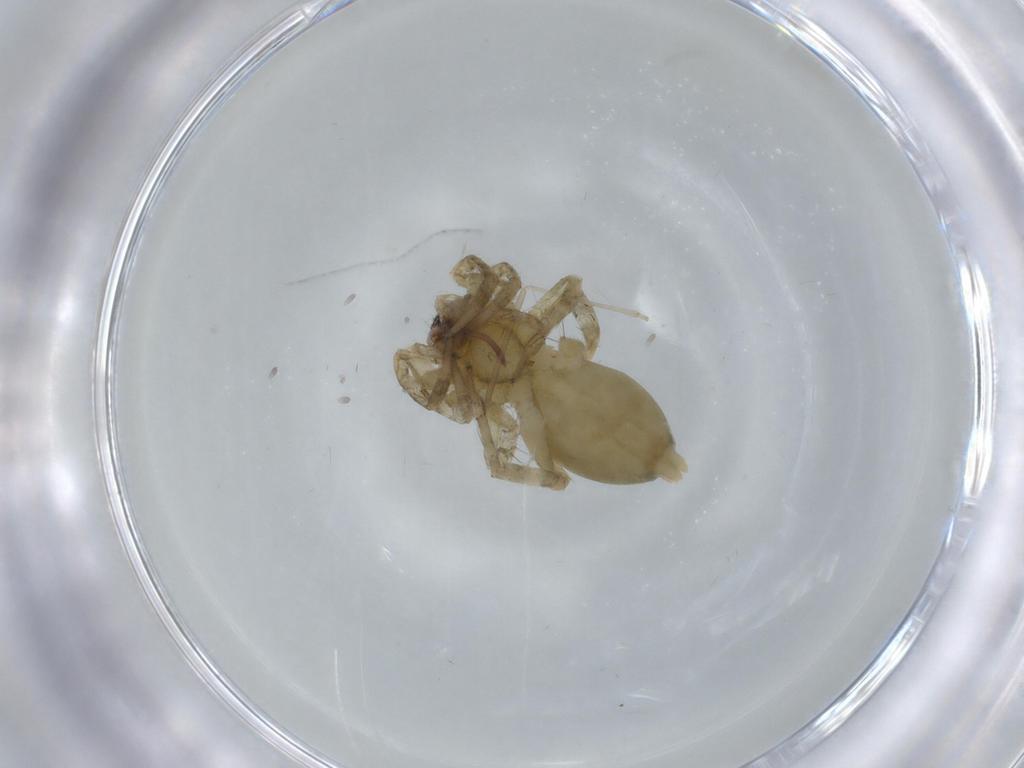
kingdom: Animalia
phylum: Arthropoda
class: Arachnida
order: Araneae
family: Anyphaenidae
